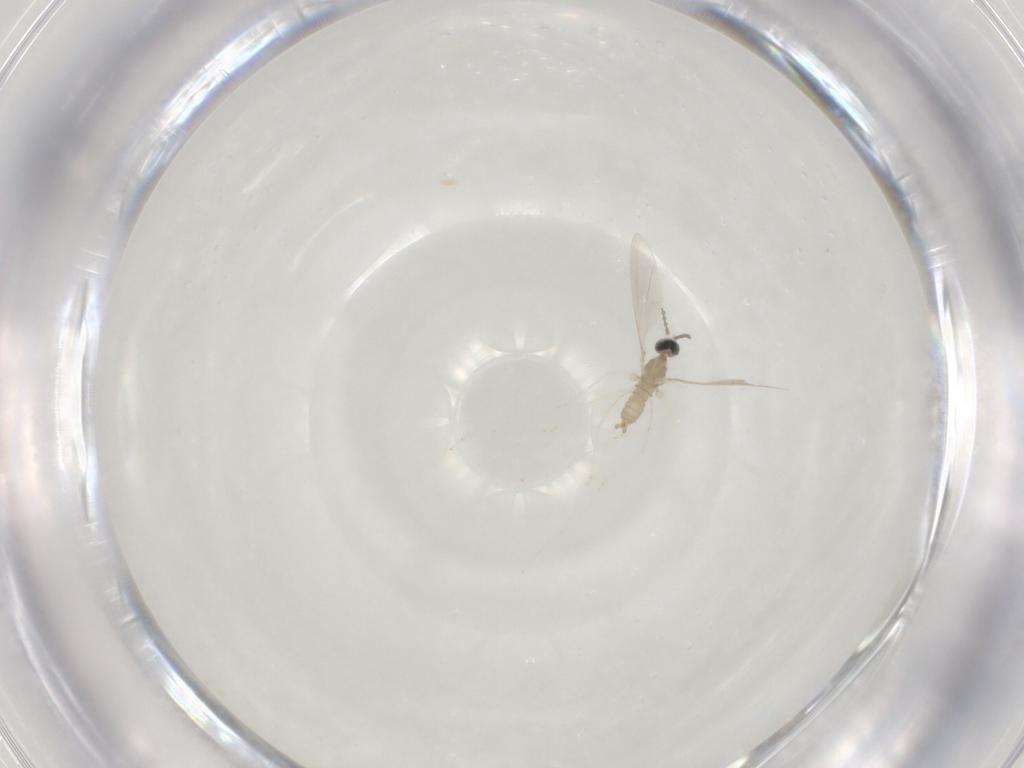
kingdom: Animalia
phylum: Arthropoda
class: Insecta
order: Diptera
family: Cecidomyiidae
